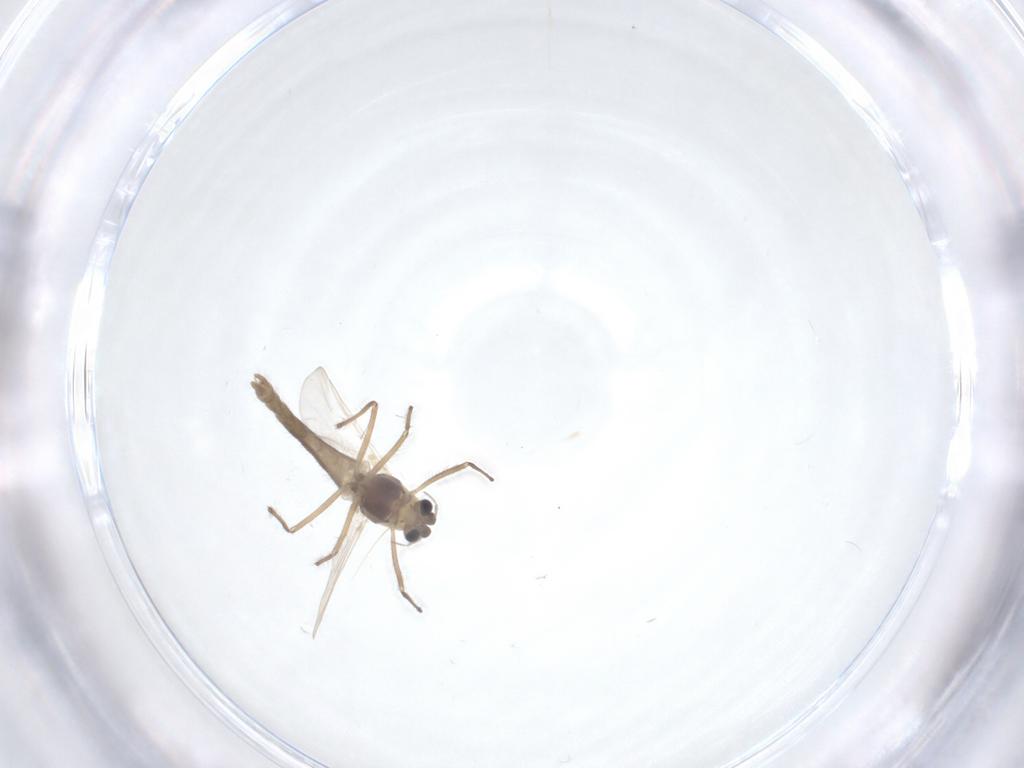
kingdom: Animalia
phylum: Arthropoda
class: Insecta
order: Diptera
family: Chironomidae
